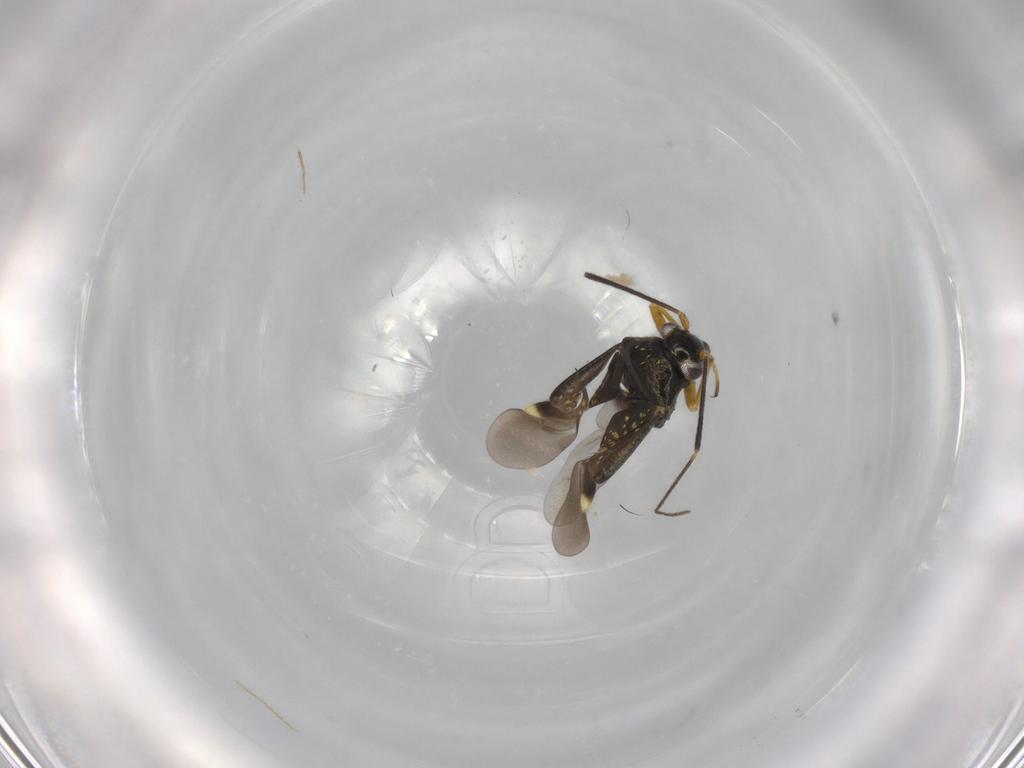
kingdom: Animalia
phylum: Arthropoda
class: Insecta
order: Hemiptera
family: Miridae
